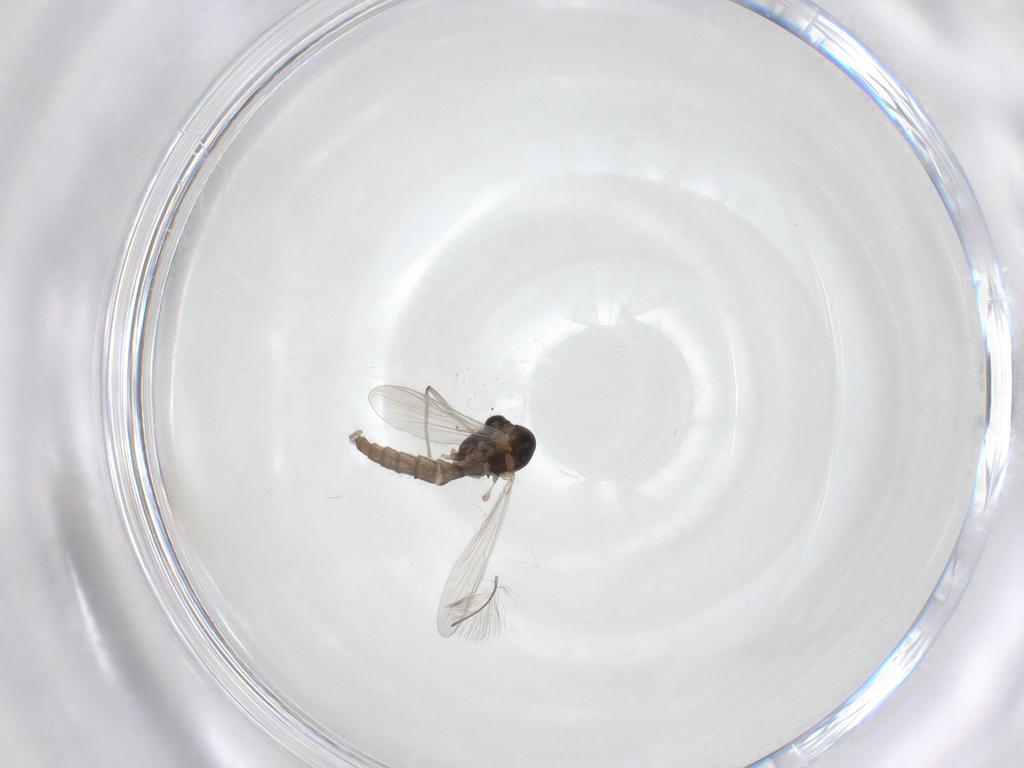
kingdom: Animalia
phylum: Arthropoda
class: Insecta
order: Diptera
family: Chironomidae
